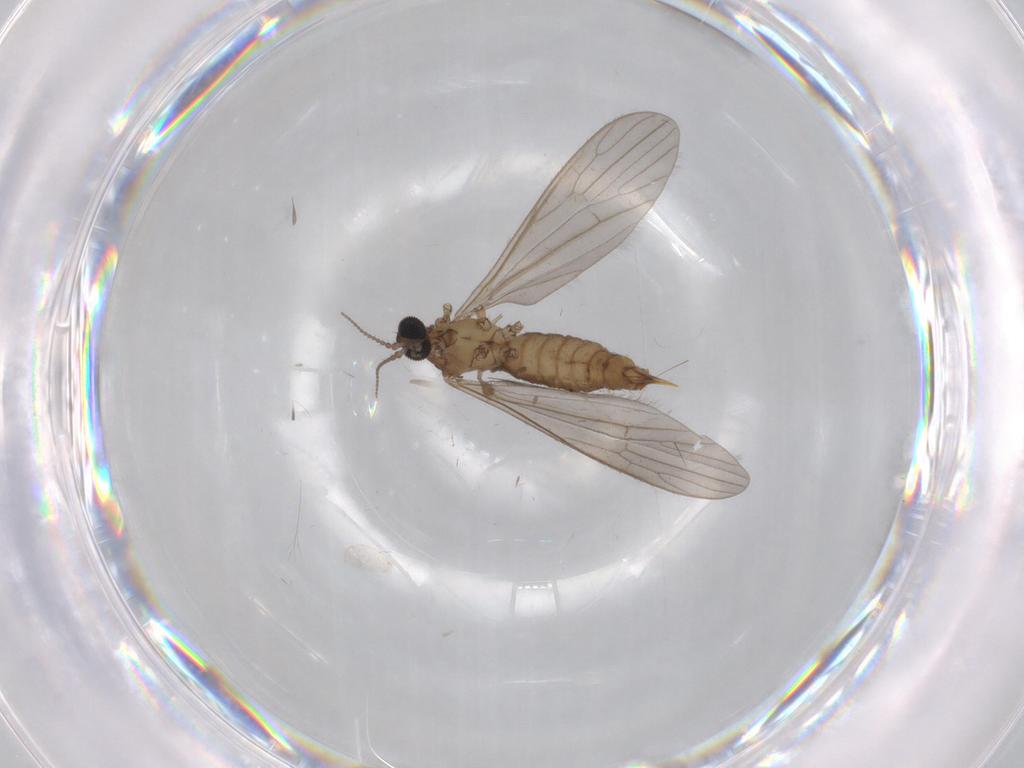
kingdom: Animalia
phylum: Arthropoda
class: Insecta
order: Diptera
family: Limoniidae
